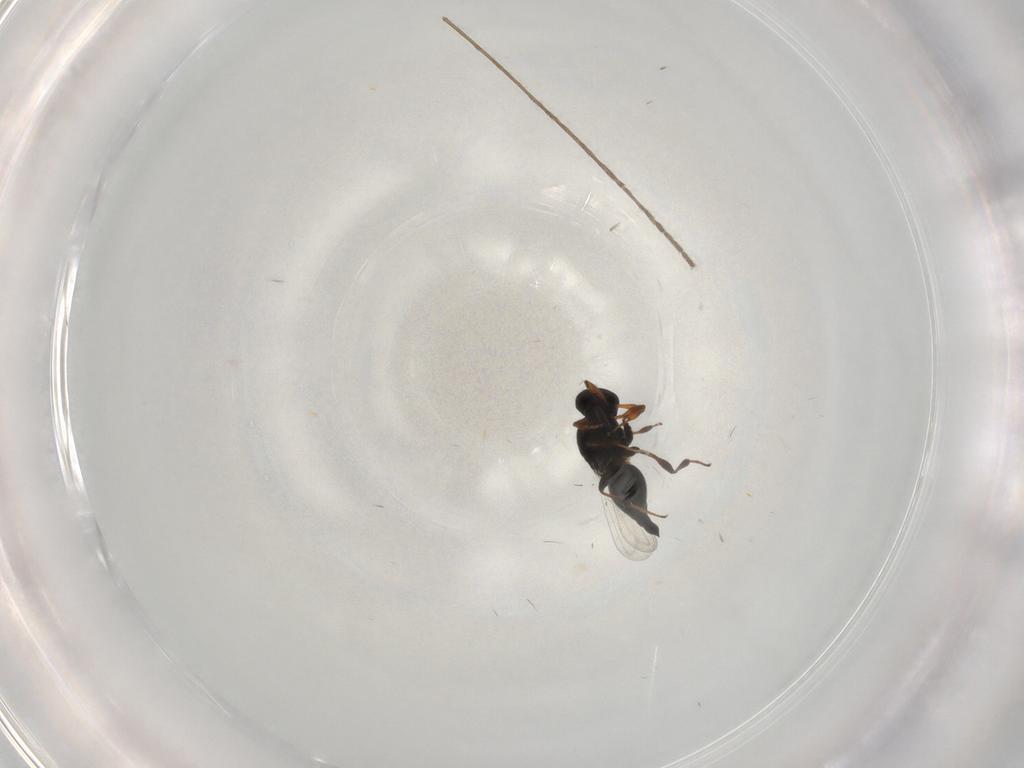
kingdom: Animalia
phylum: Arthropoda
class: Insecta
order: Hymenoptera
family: Platygastridae
